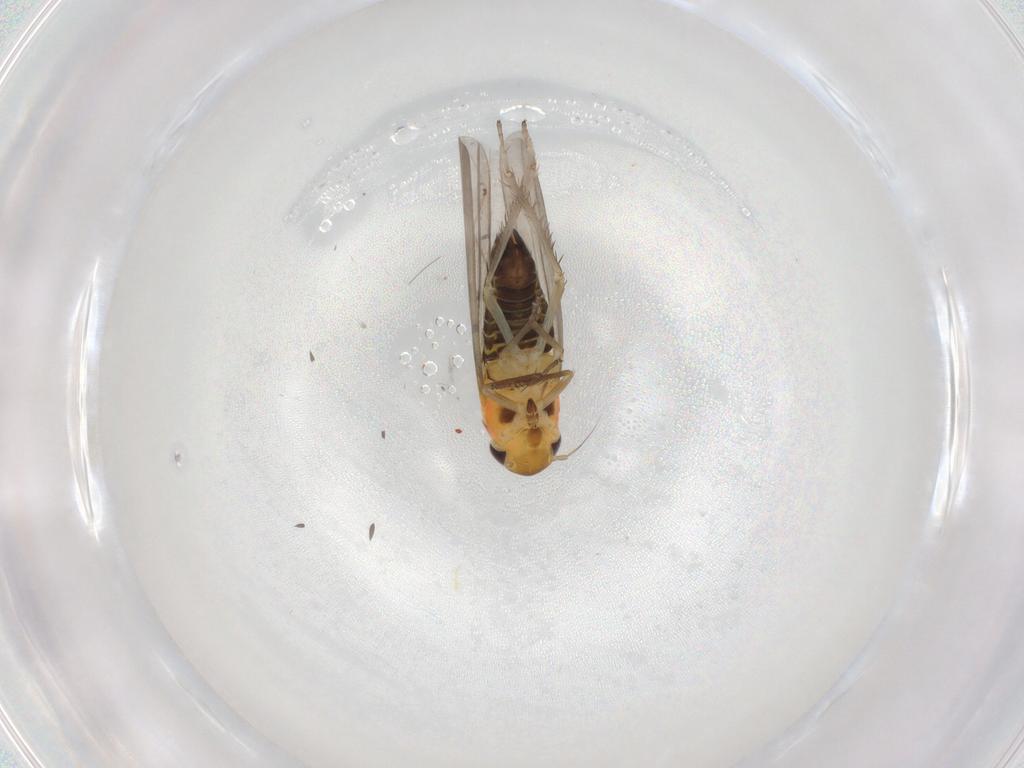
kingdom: Animalia
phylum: Arthropoda
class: Insecta
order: Hemiptera
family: Cicadellidae
